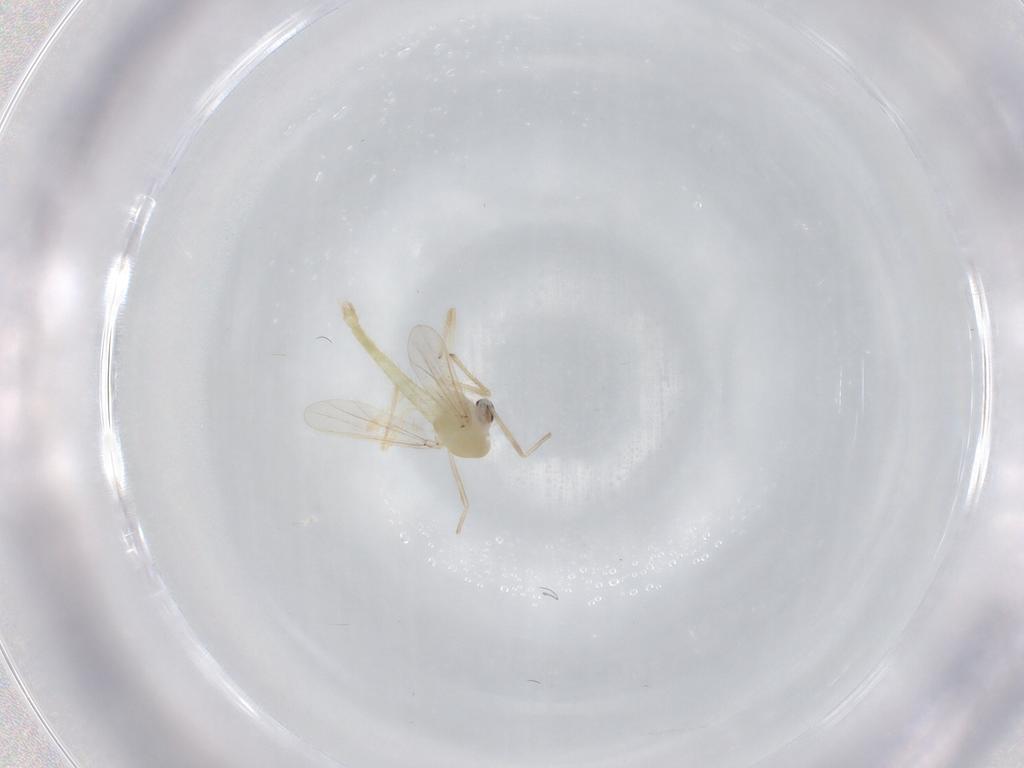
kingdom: Animalia
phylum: Arthropoda
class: Insecta
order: Diptera
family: Chironomidae
